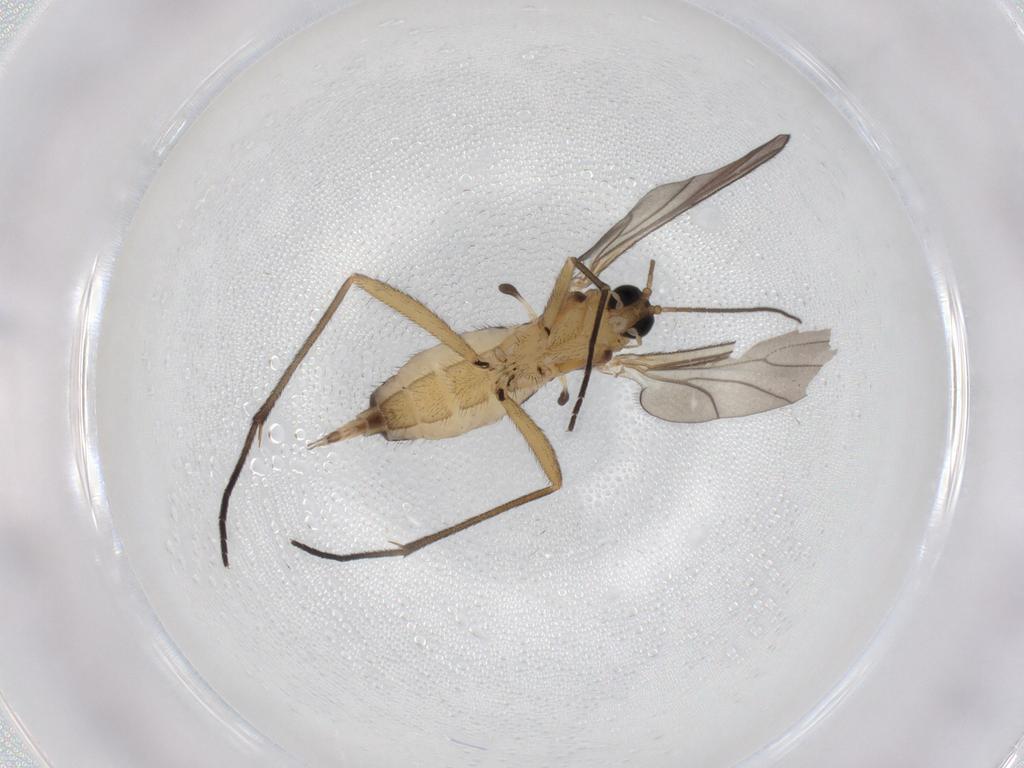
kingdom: Animalia
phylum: Arthropoda
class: Insecta
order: Diptera
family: Sciaridae
